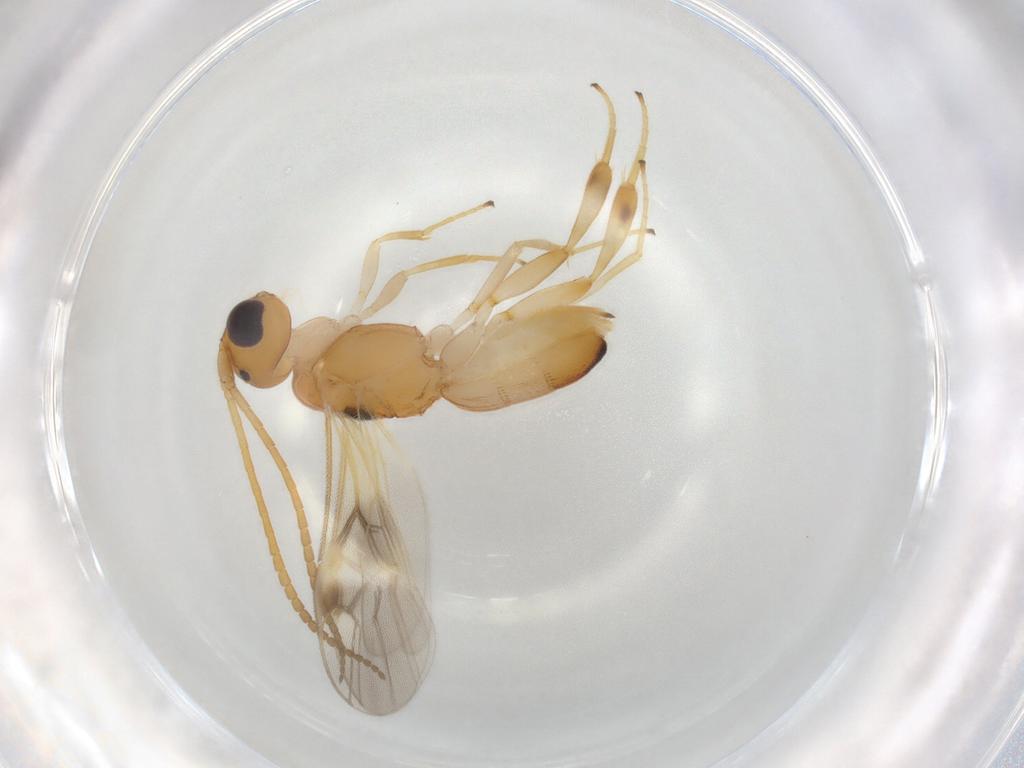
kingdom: Animalia
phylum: Arthropoda
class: Insecta
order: Hymenoptera
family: Braconidae
